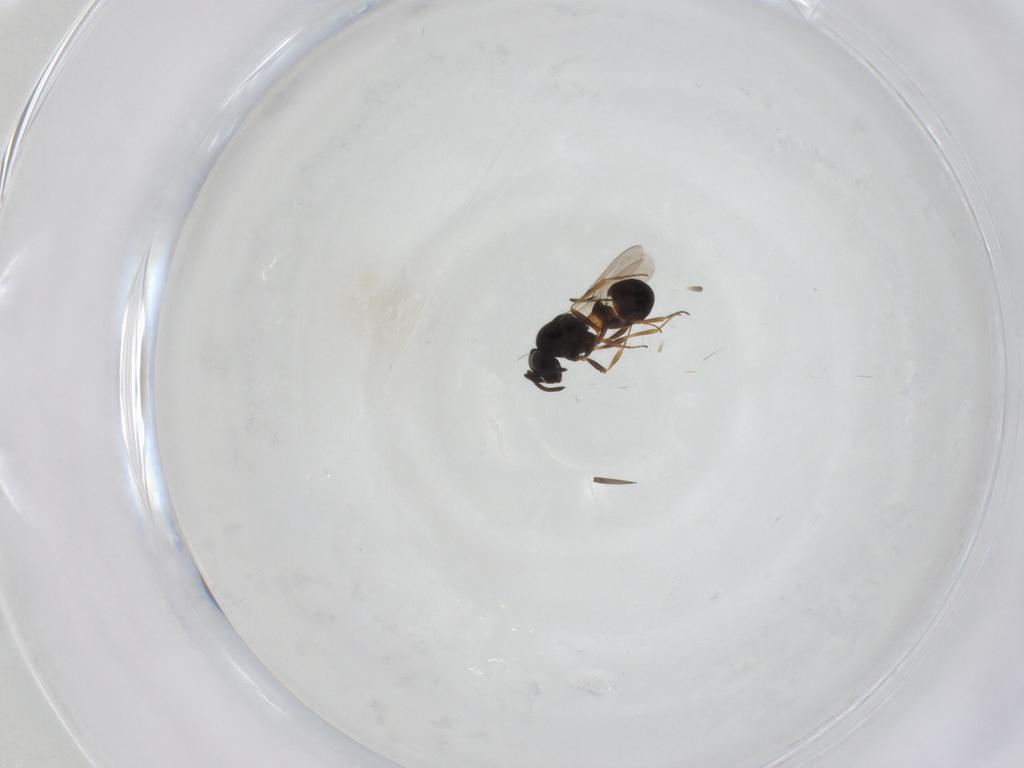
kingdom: Animalia
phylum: Arthropoda
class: Arachnida
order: Araneae
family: Pholcidae
